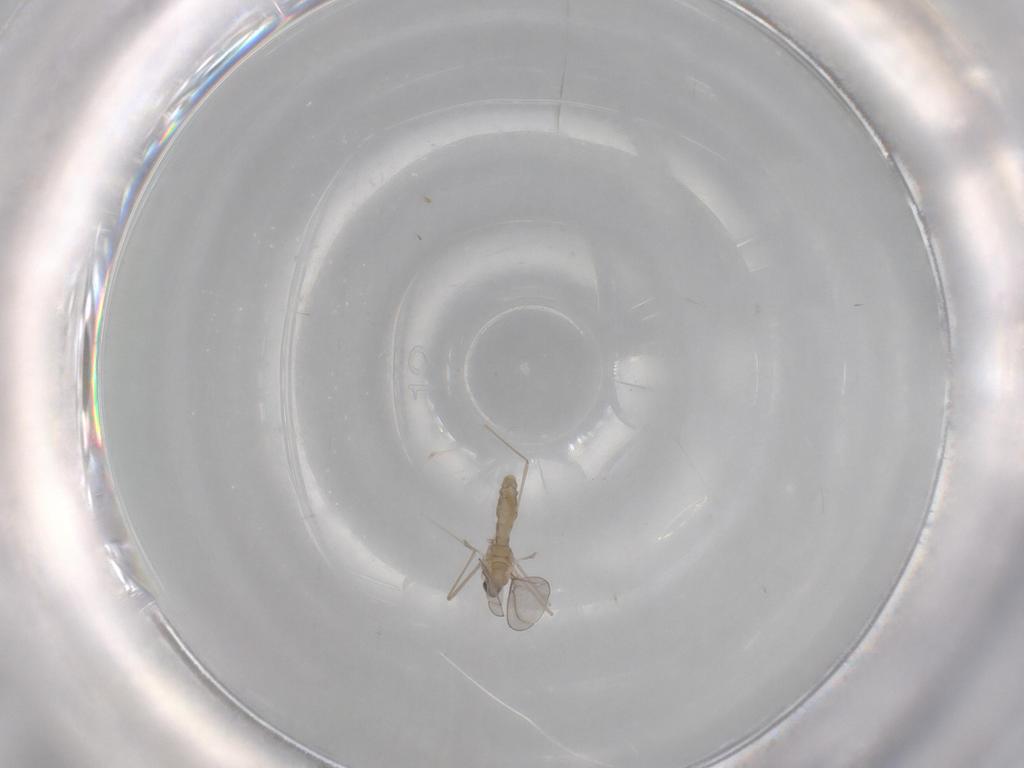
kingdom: Animalia
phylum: Arthropoda
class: Insecta
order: Diptera
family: Cecidomyiidae
